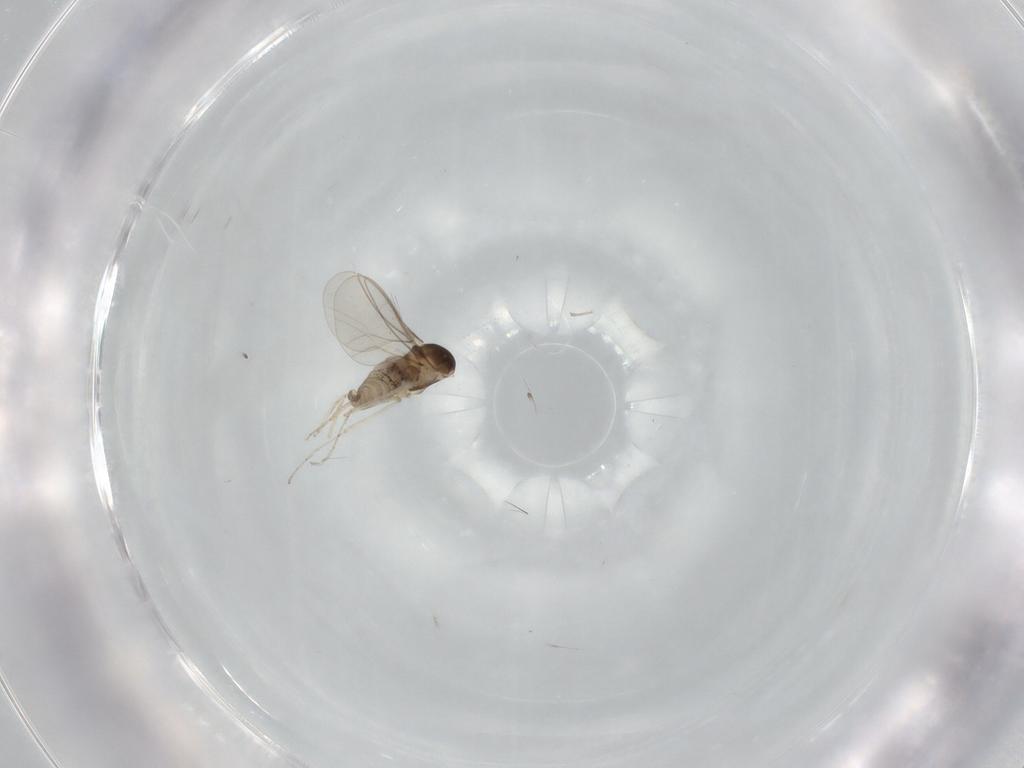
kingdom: Animalia
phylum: Arthropoda
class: Insecta
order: Diptera
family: Cecidomyiidae
